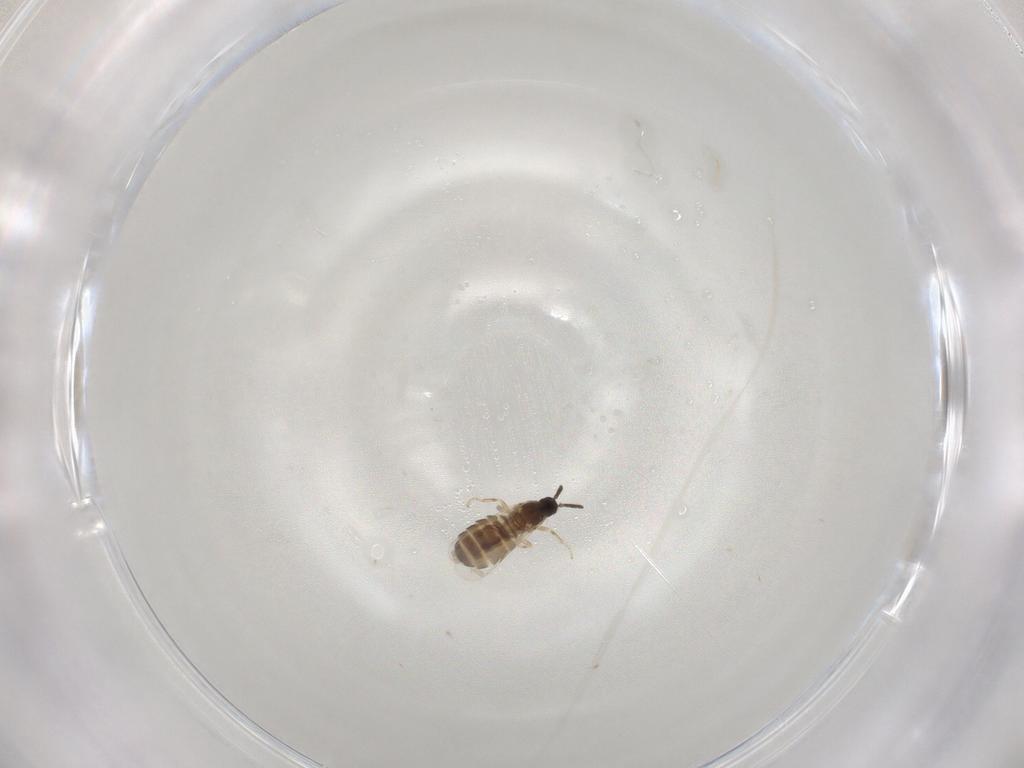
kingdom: Animalia
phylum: Arthropoda
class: Insecta
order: Diptera
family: Scatopsidae
